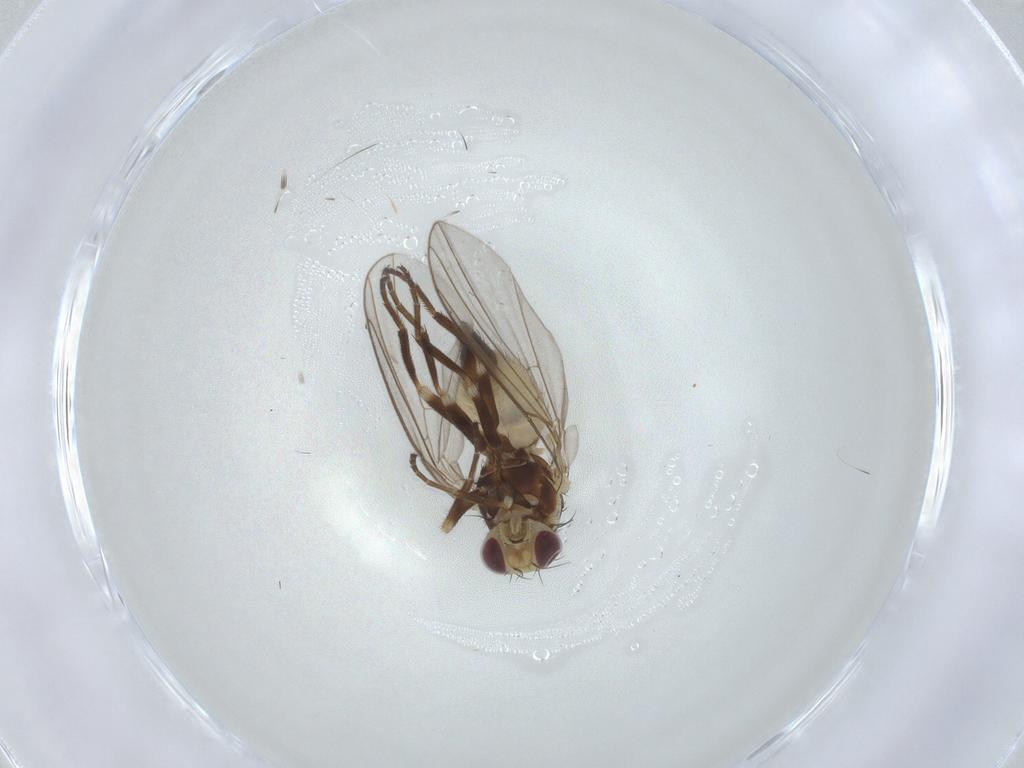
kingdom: Animalia
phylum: Arthropoda
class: Insecta
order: Diptera
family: Agromyzidae
